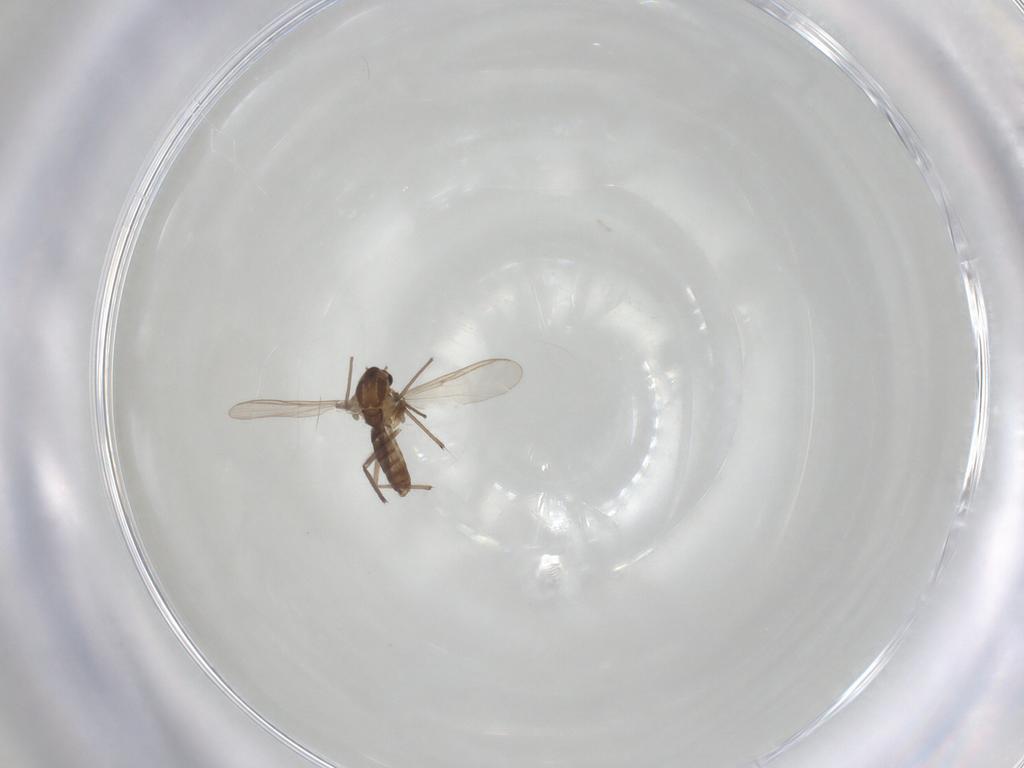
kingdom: Animalia
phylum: Arthropoda
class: Insecta
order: Diptera
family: Chironomidae
